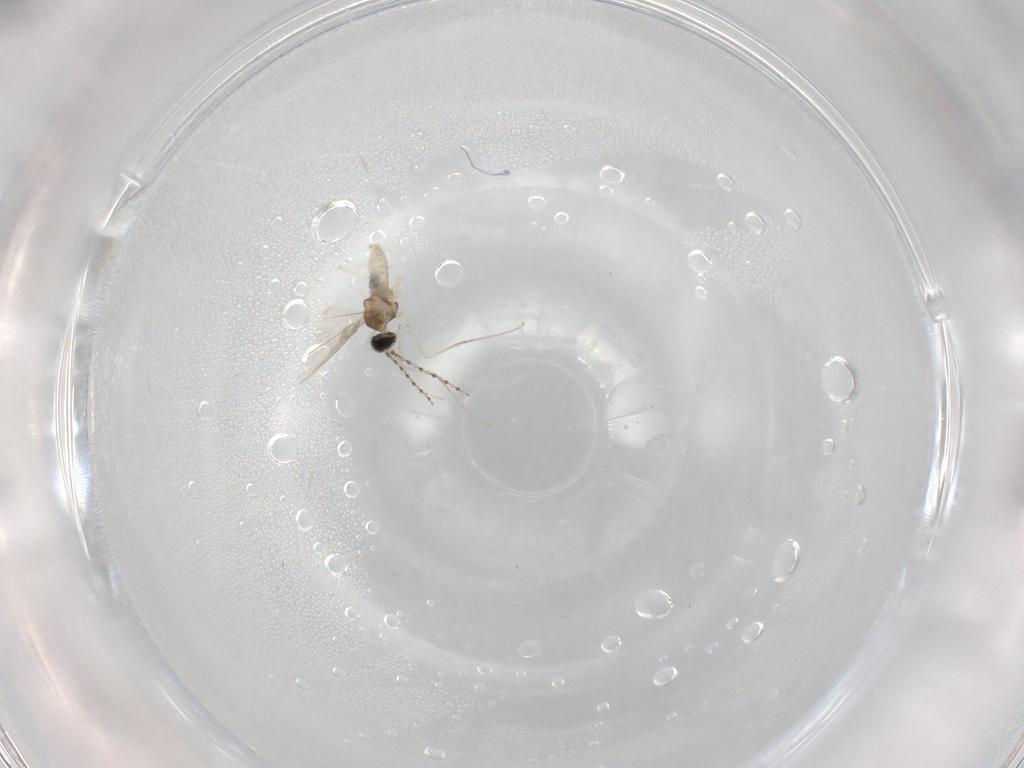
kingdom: Animalia
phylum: Arthropoda
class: Insecta
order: Diptera
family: Cecidomyiidae
